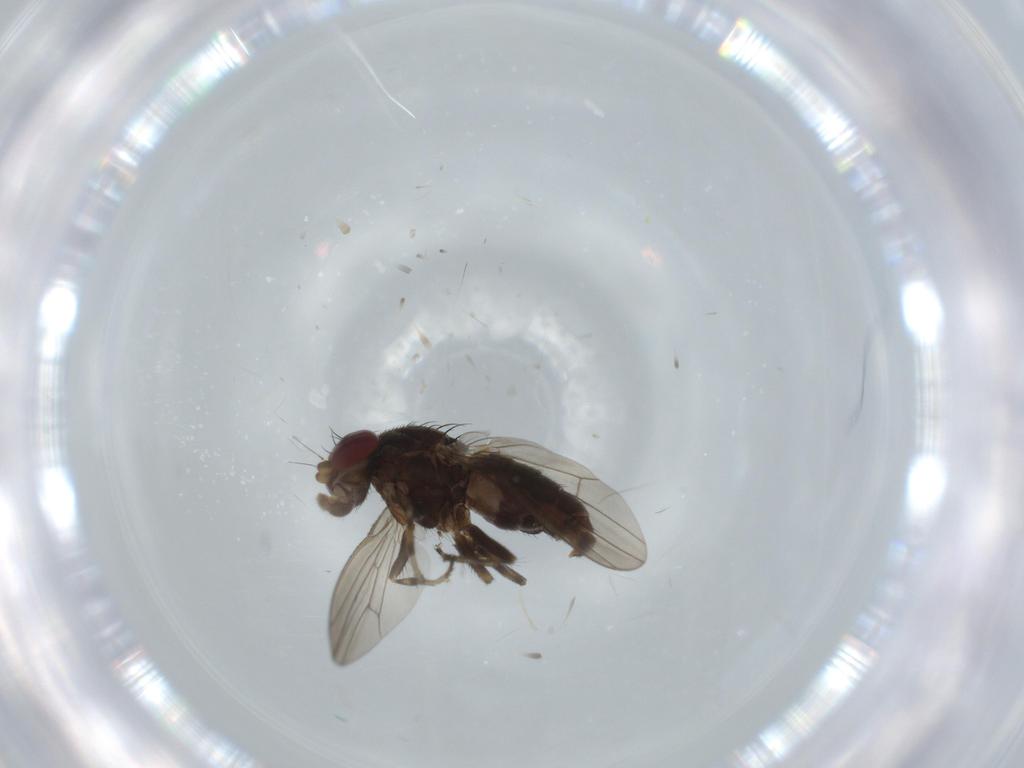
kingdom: Animalia
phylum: Arthropoda
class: Insecta
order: Diptera
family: Cecidomyiidae
